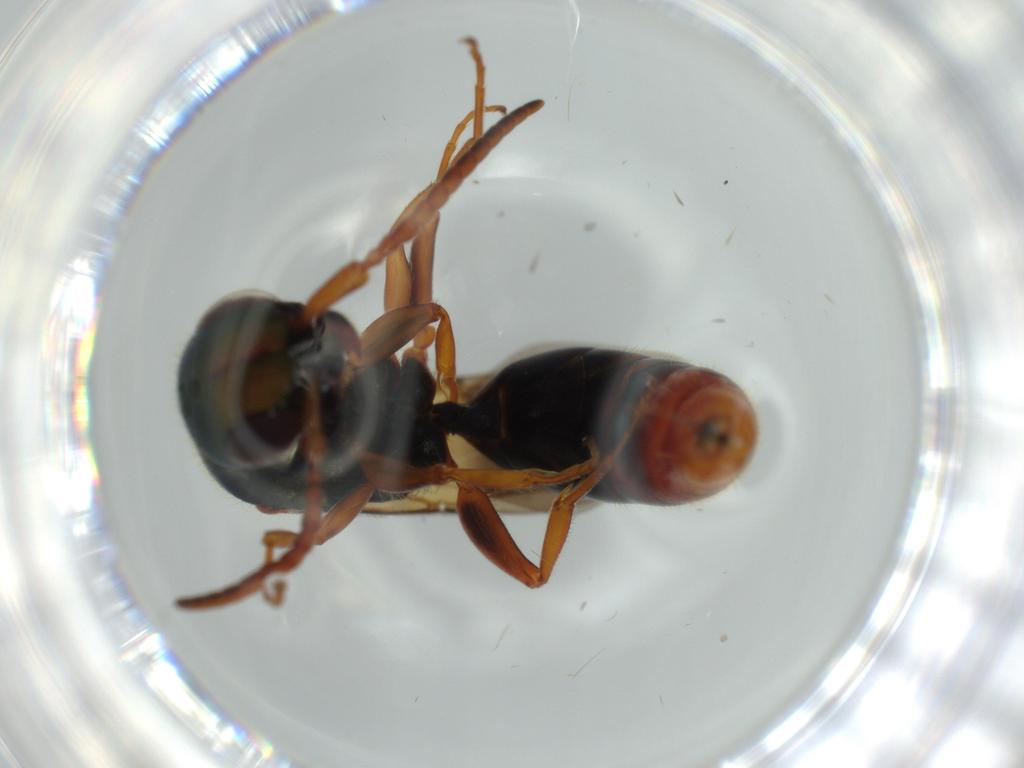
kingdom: Animalia
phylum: Arthropoda
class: Insecta
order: Hymenoptera
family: Bethylidae
